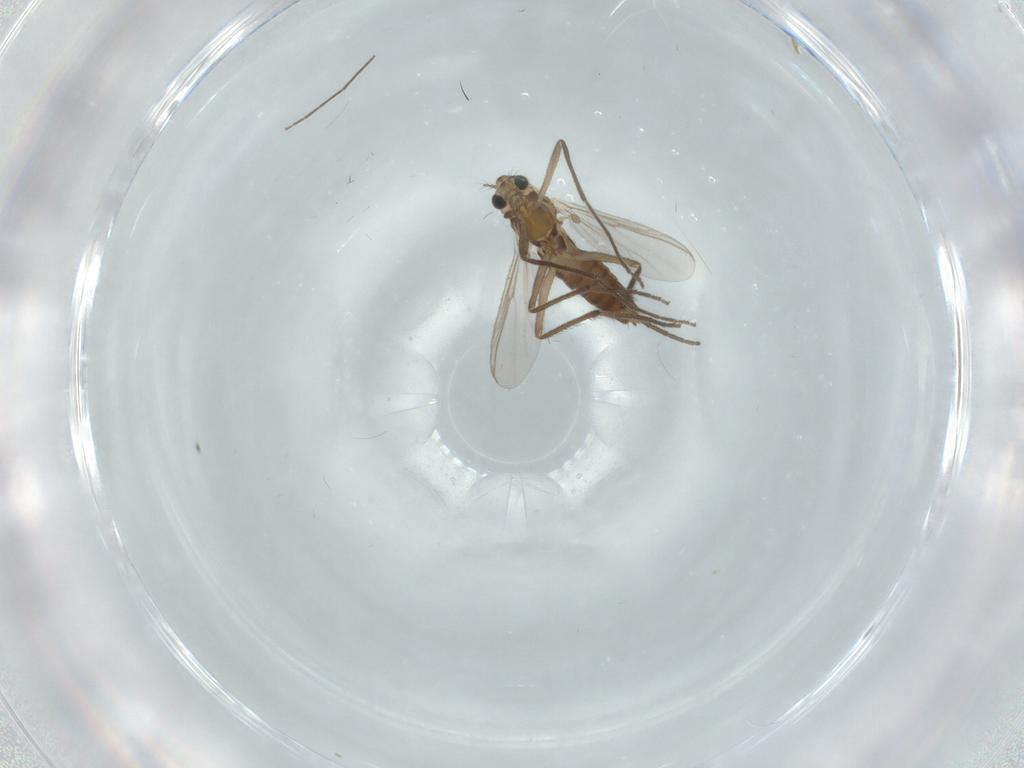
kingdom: Animalia
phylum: Arthropoda
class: Insecta
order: Diptera
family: Chironomidae
